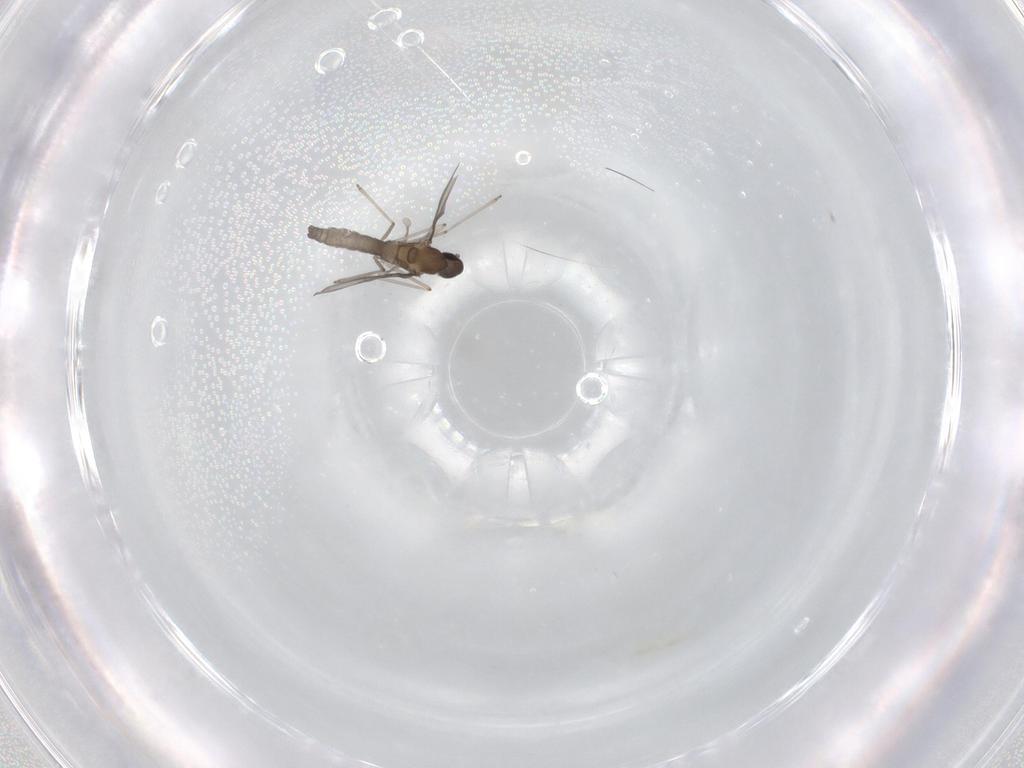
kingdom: Animalia
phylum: Arthropoda
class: Insecta
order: Diptera
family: Cecidomyiidae
